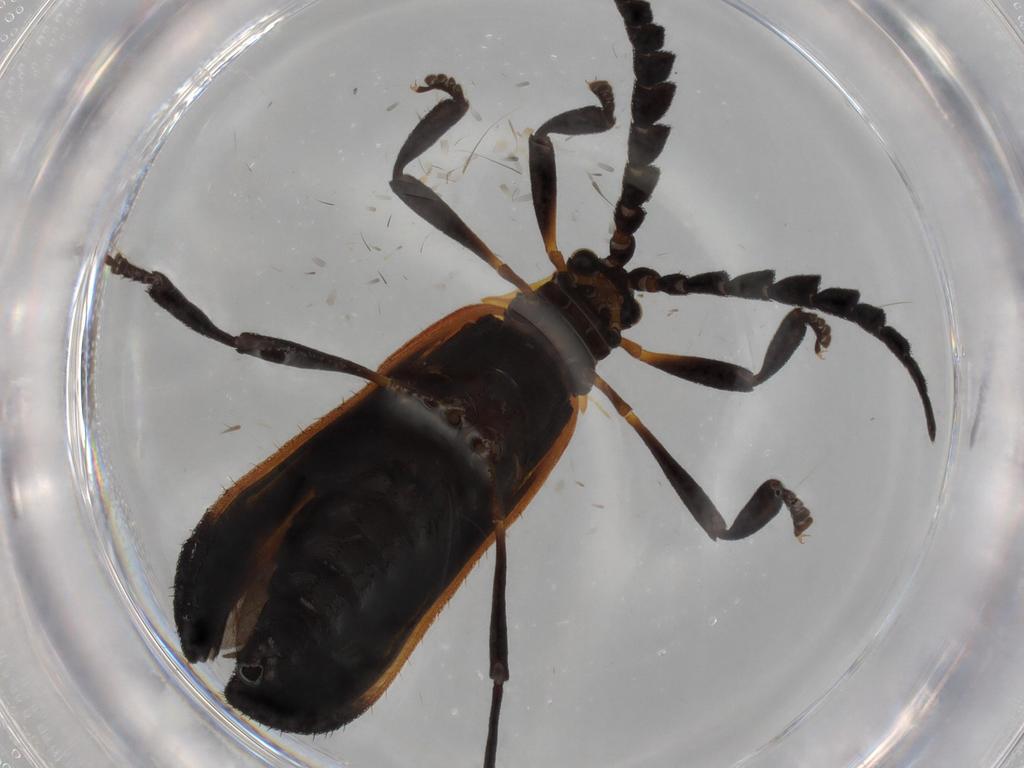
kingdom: Animalia
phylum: Arthropoda
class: Insecta
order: Coleoptera
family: Lycidae
